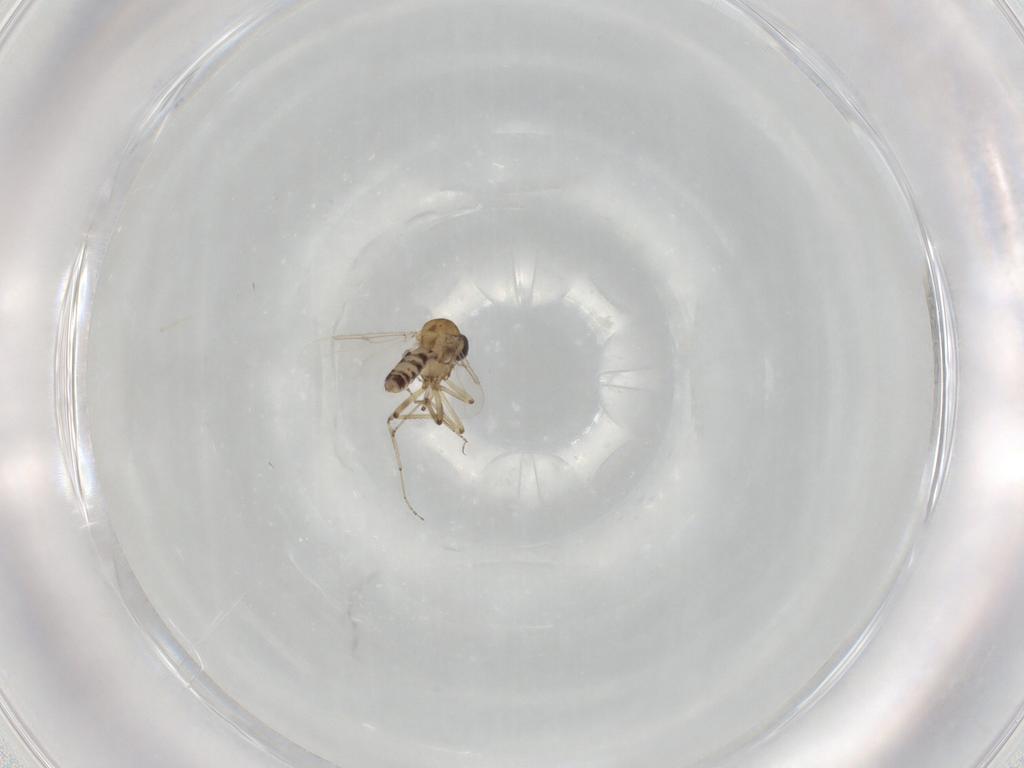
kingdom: Animalia
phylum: Arthropoda
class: Insecta
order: Diptera
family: Ceratopogonidae
